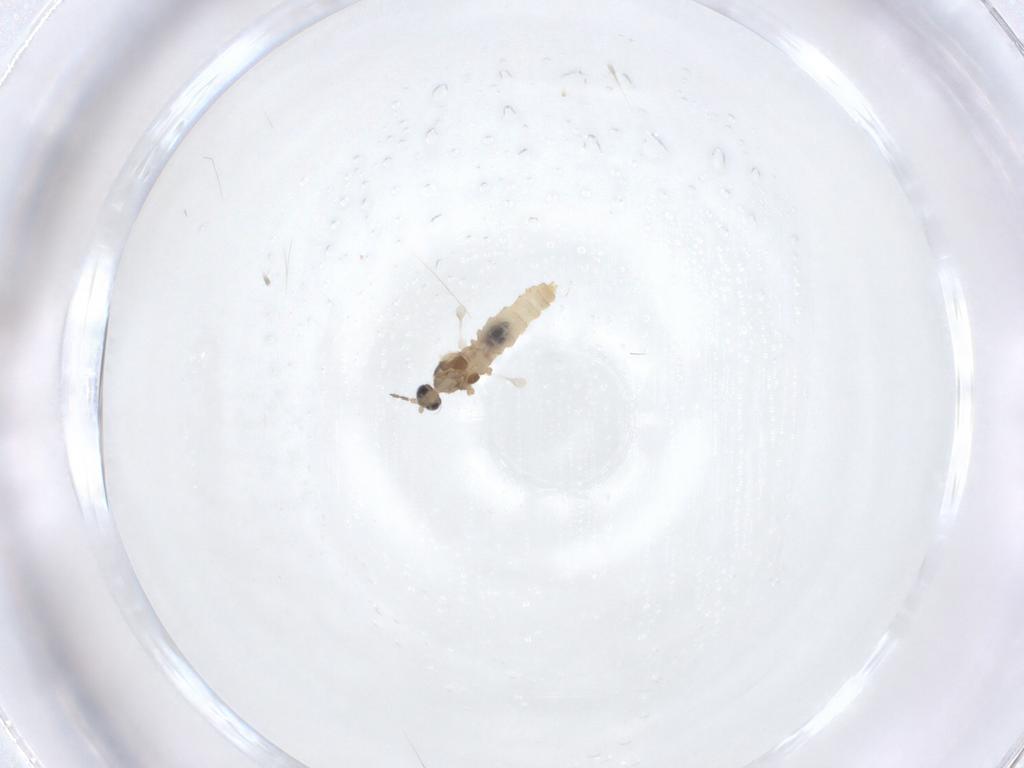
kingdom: Animalia
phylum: Arthropoda
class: Insecta
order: Diptera
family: Cecidomyiidae
